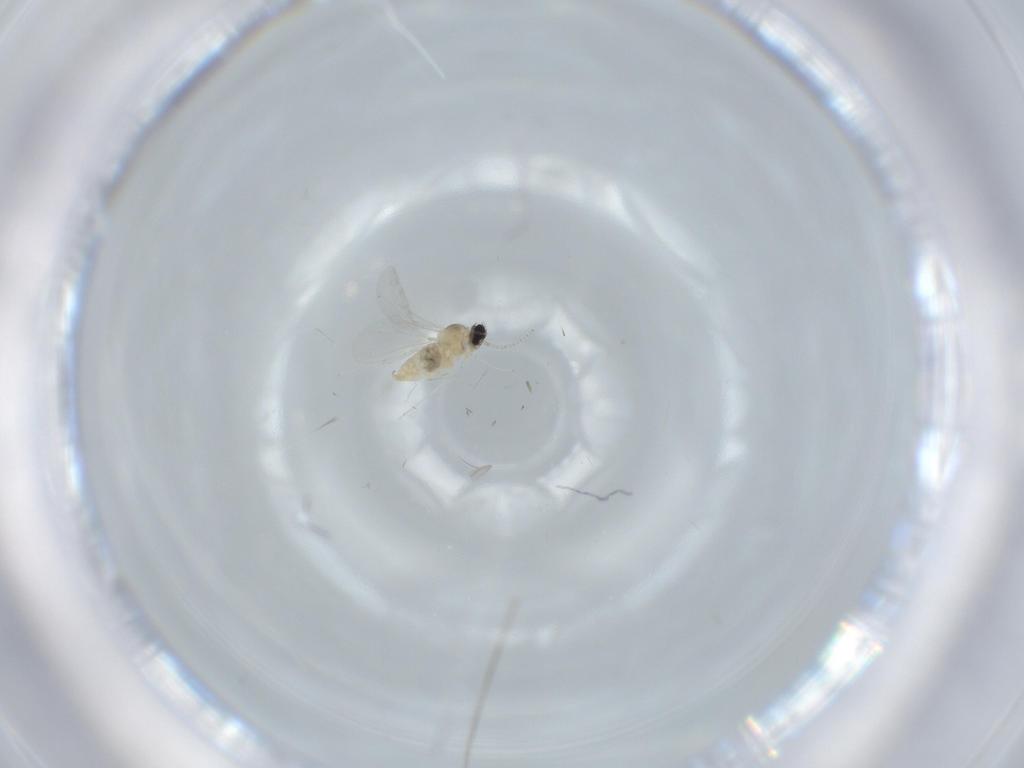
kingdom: Animalia
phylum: Arthropoda
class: Insecta
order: Diptera
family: Cecidomyiidae
